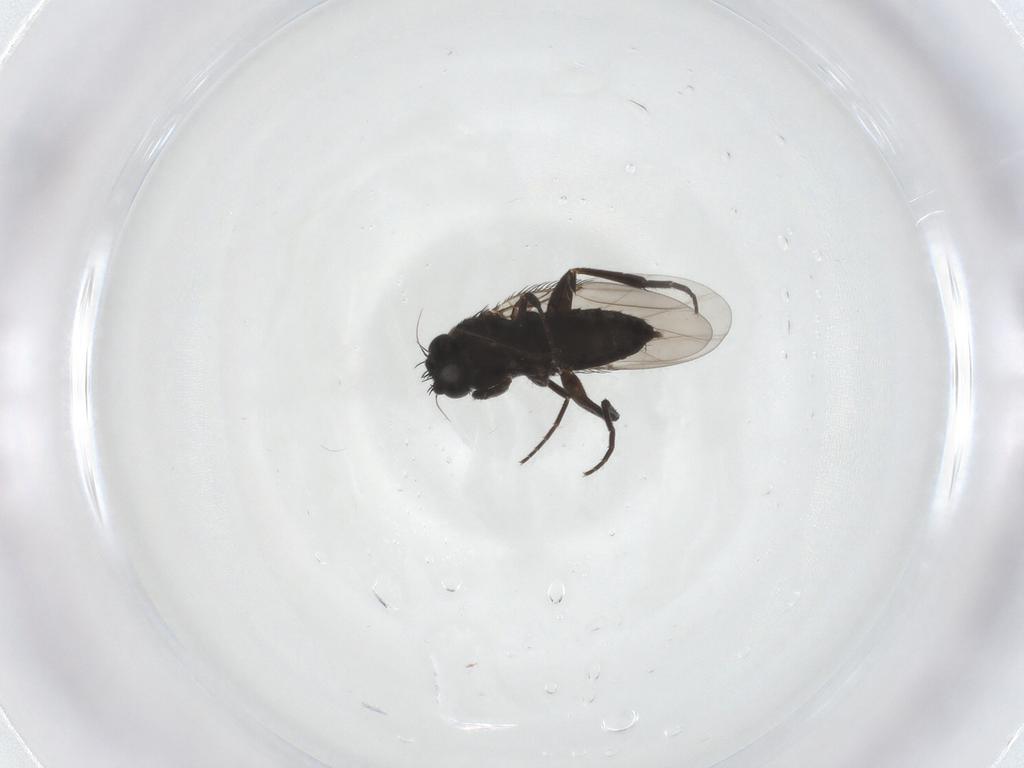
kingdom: Animalia
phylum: Arthropoda
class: Insecta
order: Diptera
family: Phoridae
